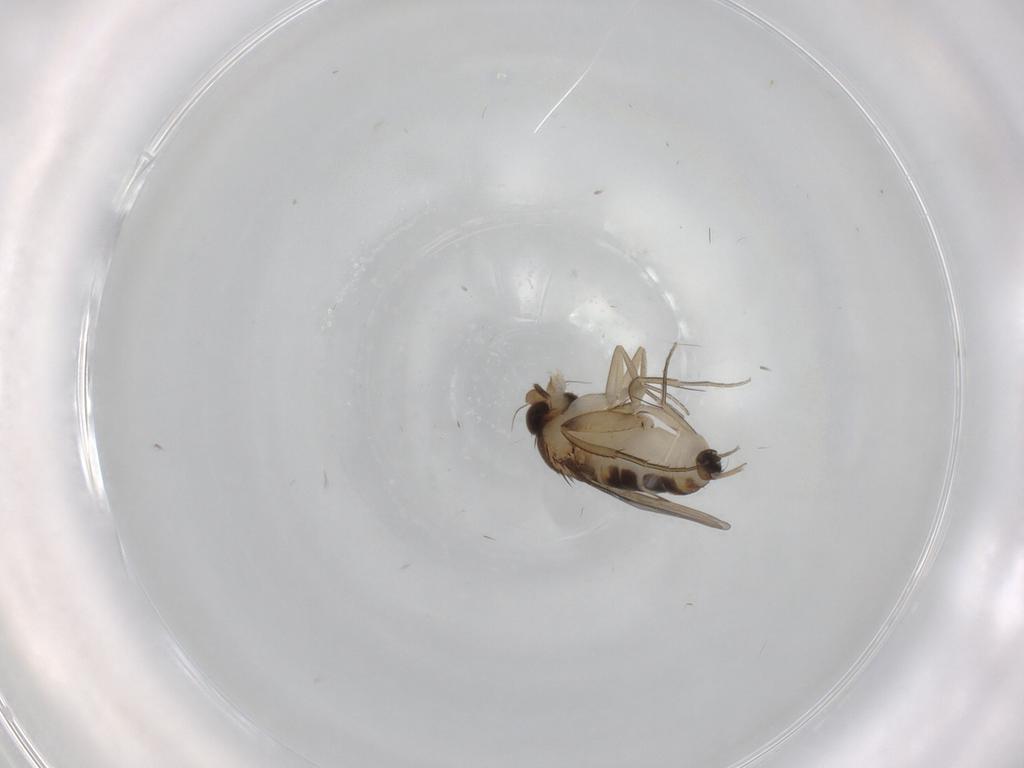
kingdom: Animalia
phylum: Arthropoda
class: Insecta
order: Diptera
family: Phoridae
